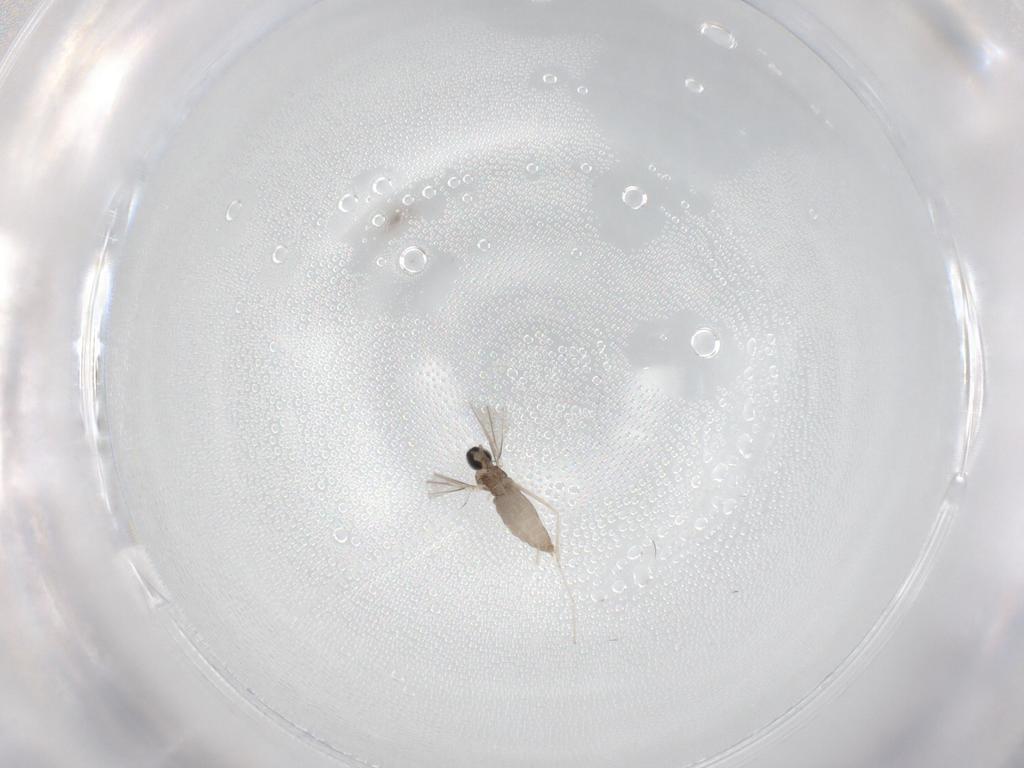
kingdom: Animalia
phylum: Arthropoda
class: Insecta
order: Diptera
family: Cecidomyiidae
